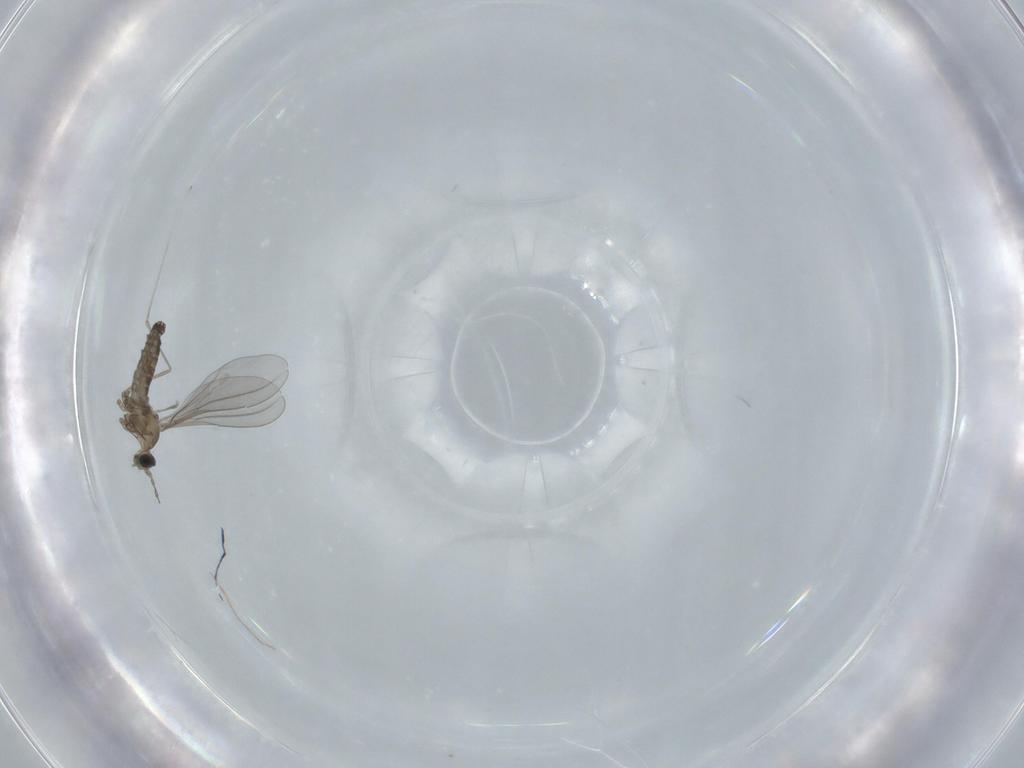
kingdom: Animalia
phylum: Arthropoda
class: Insecta
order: Diptera
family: Cecidomyiidae
